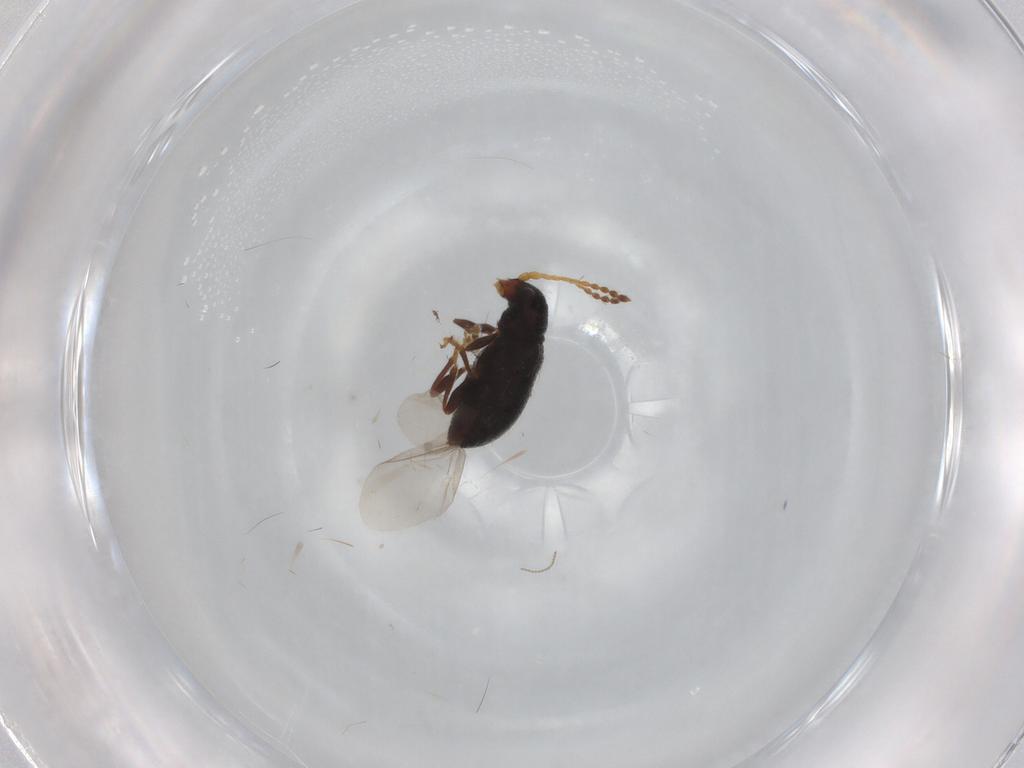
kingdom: Animalia
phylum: Arthropoda
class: Insecta
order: Coleoptera
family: Chrysomelidae
